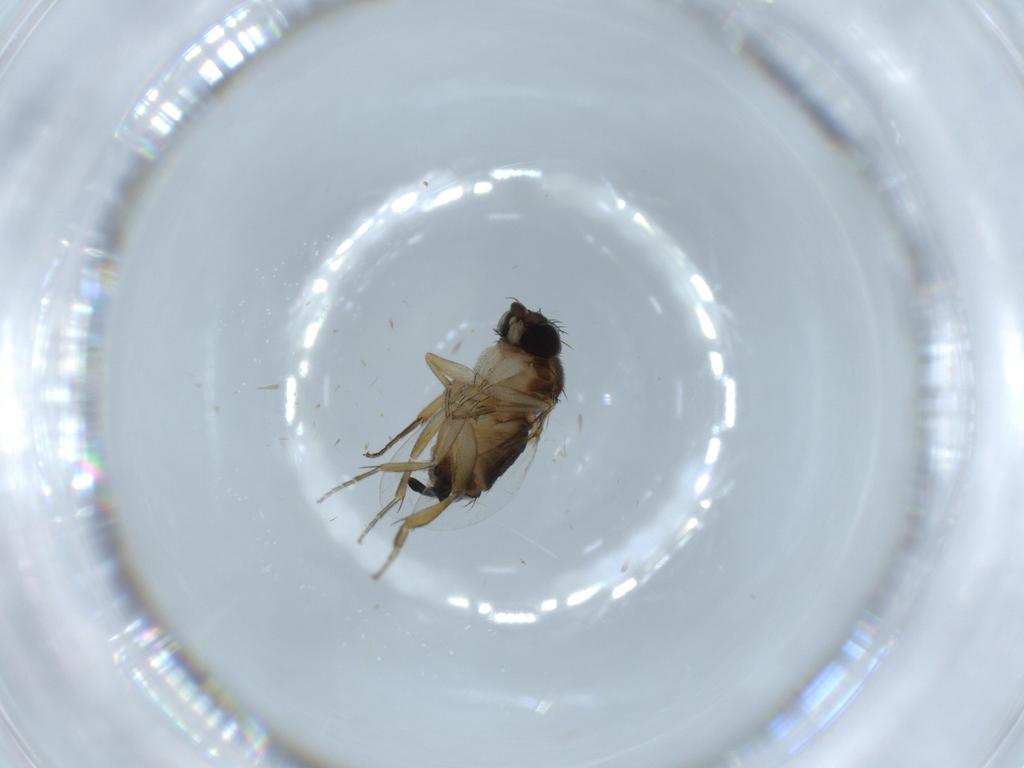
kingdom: Animalia
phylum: Arthropoda
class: Insecta
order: Diptera
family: Phoridae
